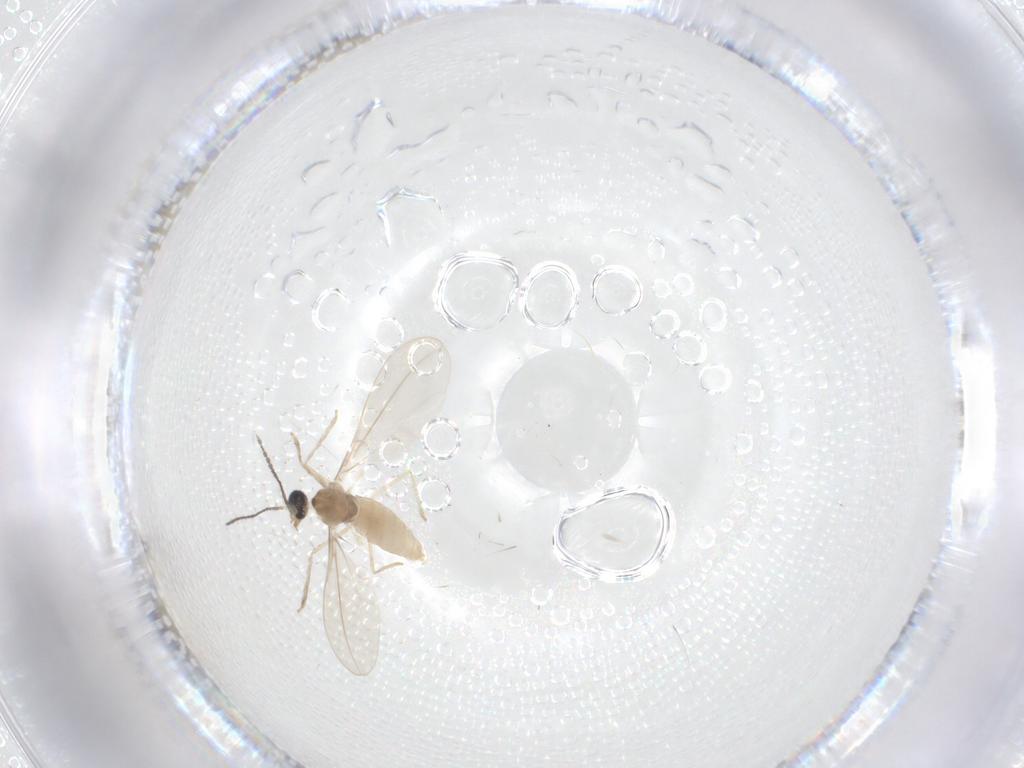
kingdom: Animalia
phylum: Arthropoda
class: Insecta
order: Diptera
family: Cecidomyiidae
